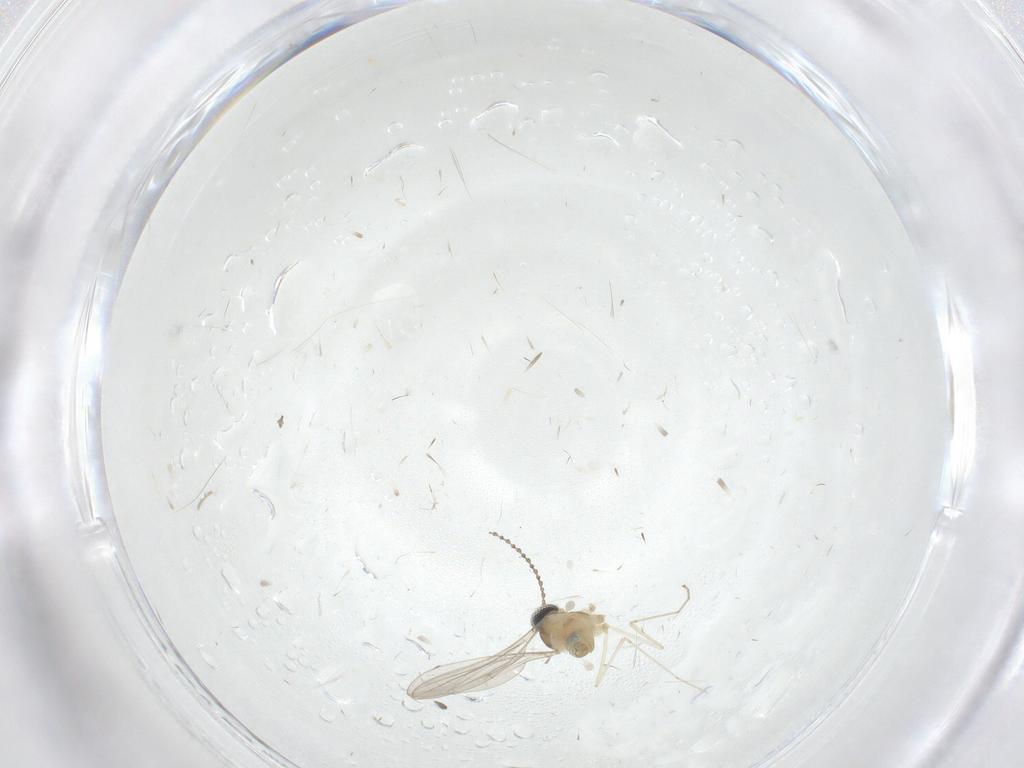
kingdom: Animalia
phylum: Arthropoda
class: Insecta
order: Diptera
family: Cecidomyiidae
